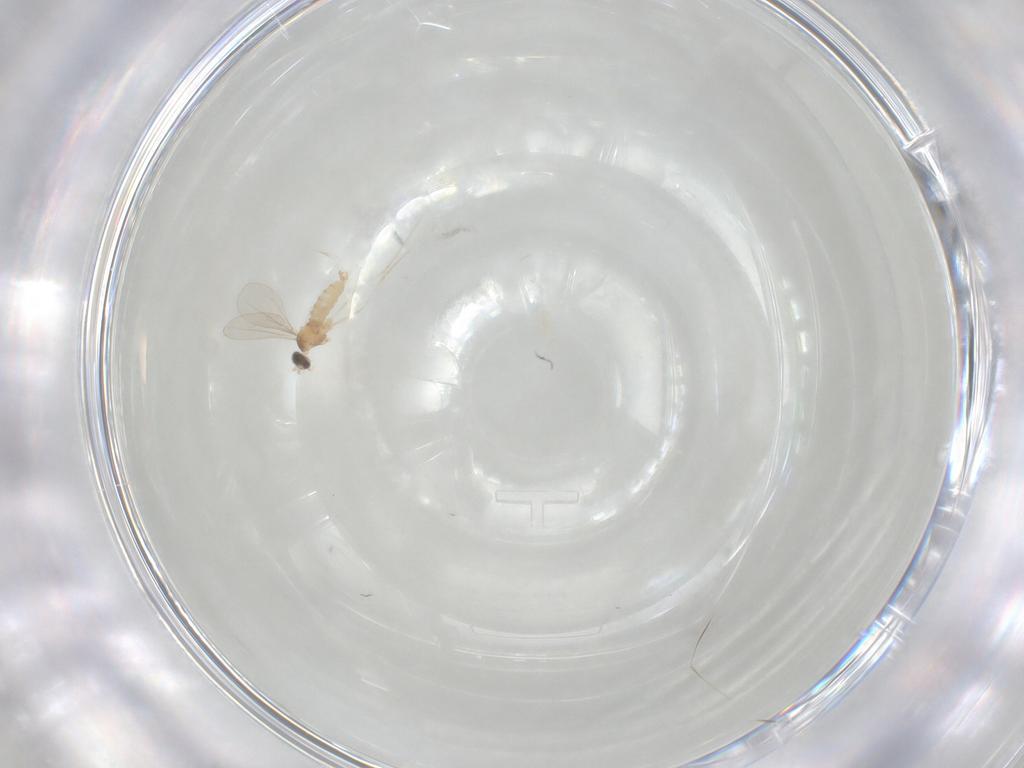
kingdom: Animalia
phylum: Arthropoda
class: Insecta
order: Diptera
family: Cecidomyiidae
